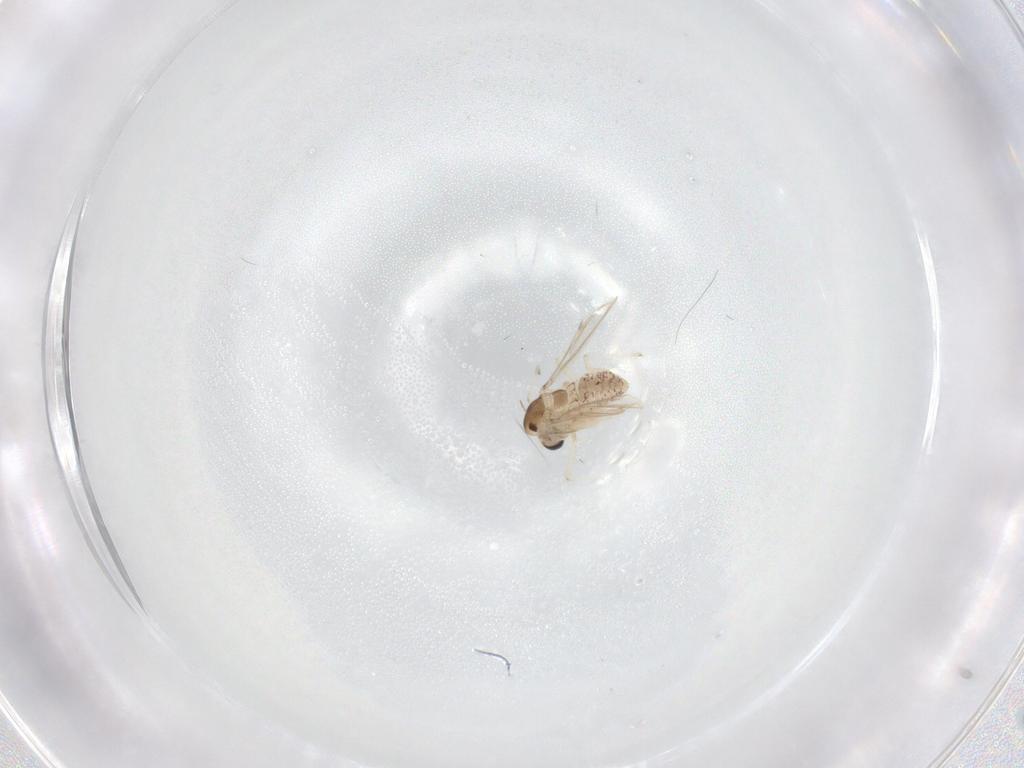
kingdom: Animalia
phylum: Arthropoda
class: Insecta
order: Diptera
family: Chironomidae
